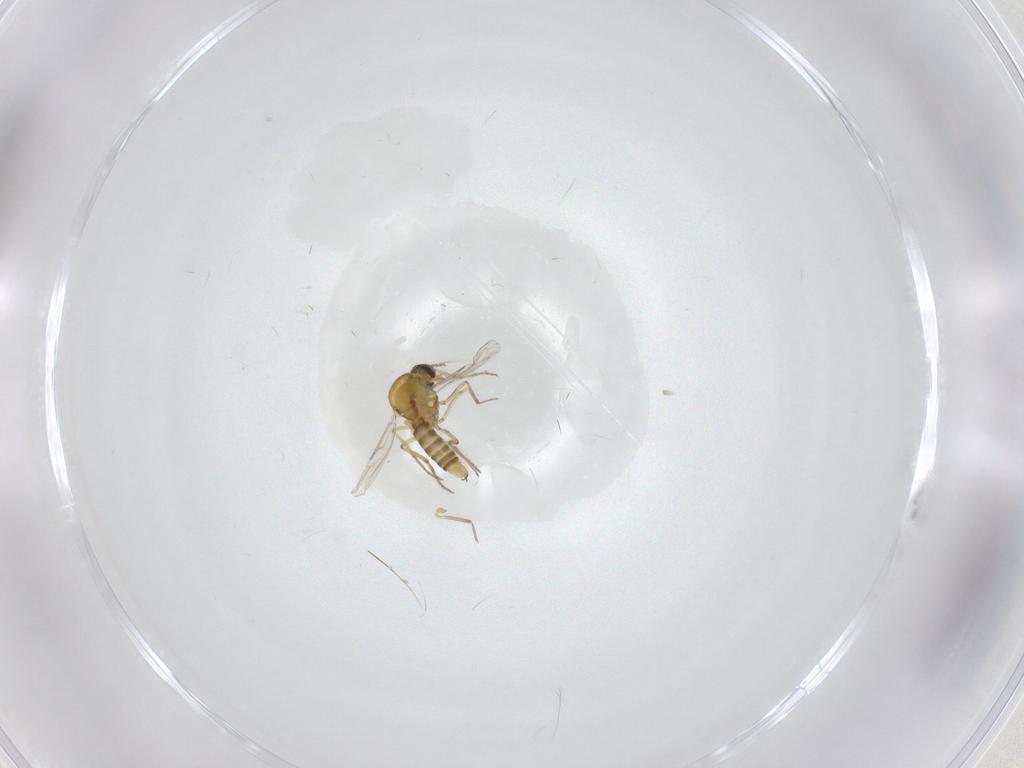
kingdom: Animalia
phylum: Arthropoda
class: Insecta
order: Diptera
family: Ceratopogonidae
